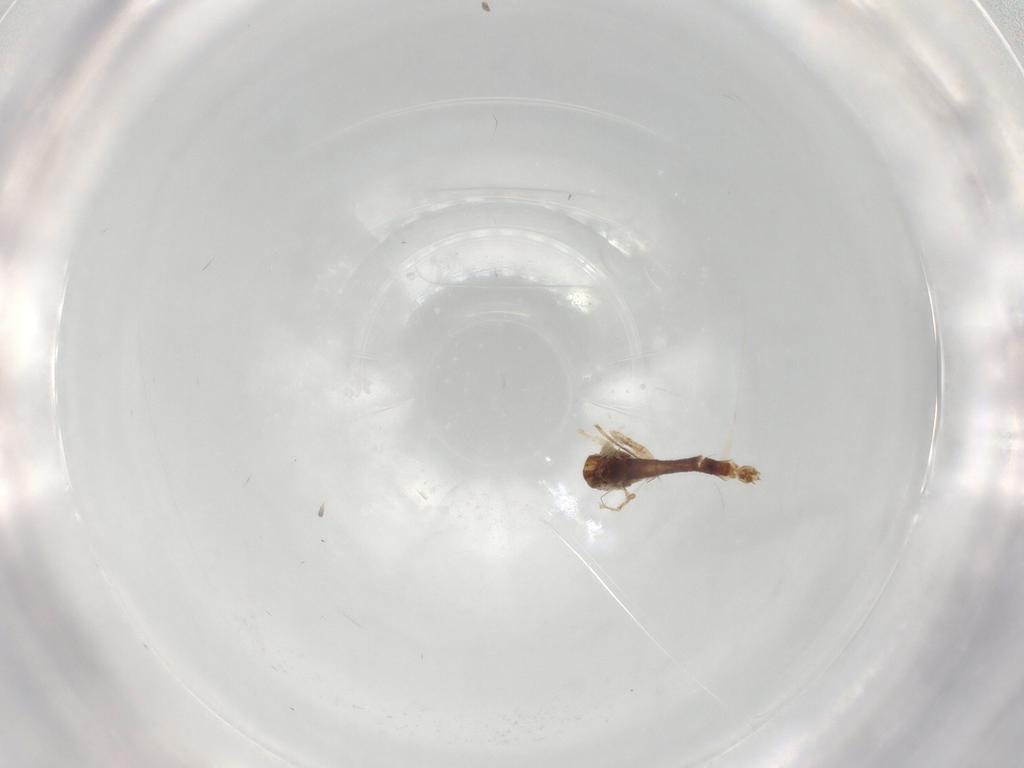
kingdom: Animalia
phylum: Arthropoda
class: Insecta
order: Diptera
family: Chironomidae
